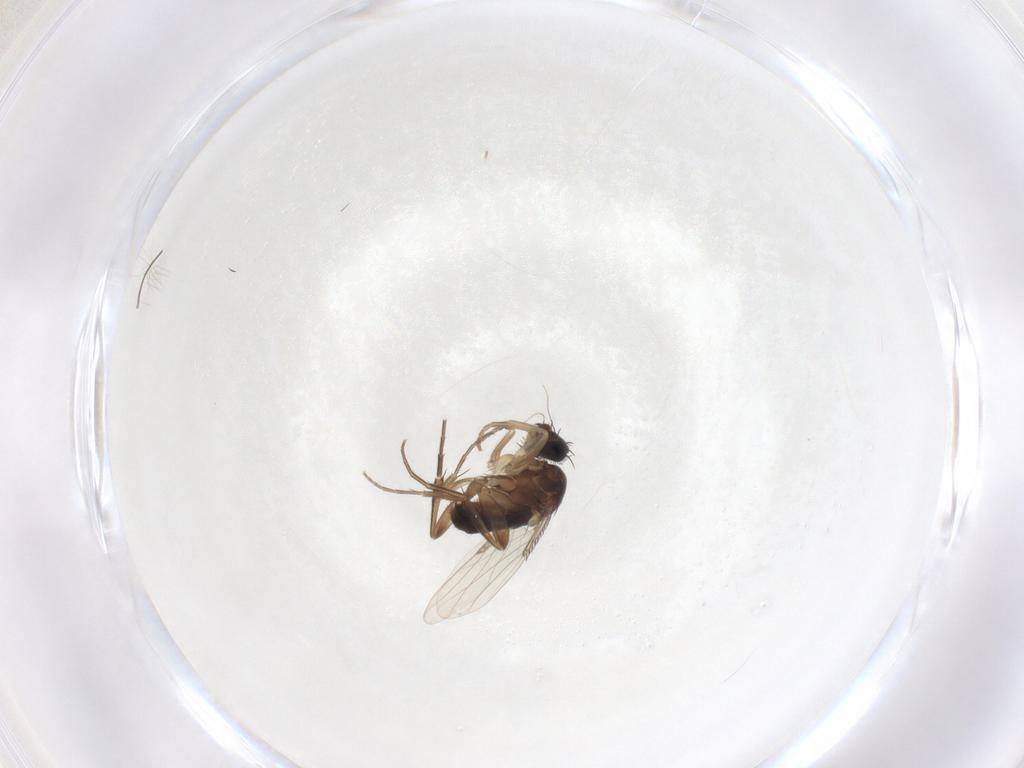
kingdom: Animalia
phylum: Arthropoda
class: Insecta
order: Diptera
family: Phoridae
